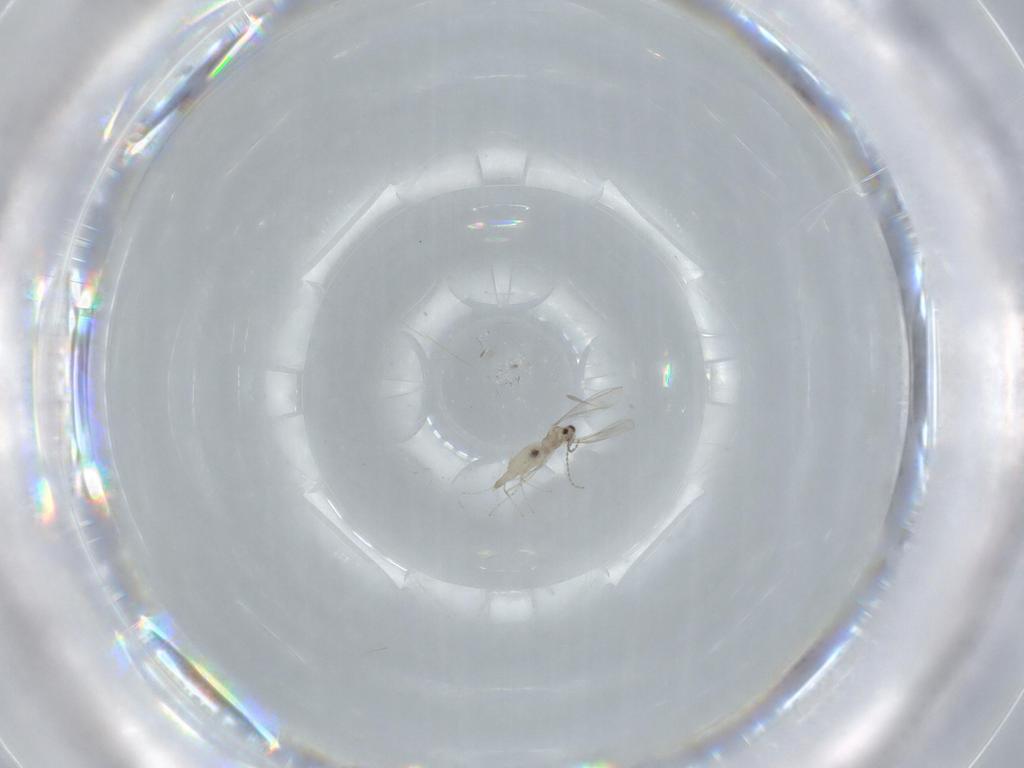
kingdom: Animalia
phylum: Arthropoda
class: Insecta
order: Diptera
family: Cecidomyiidae
